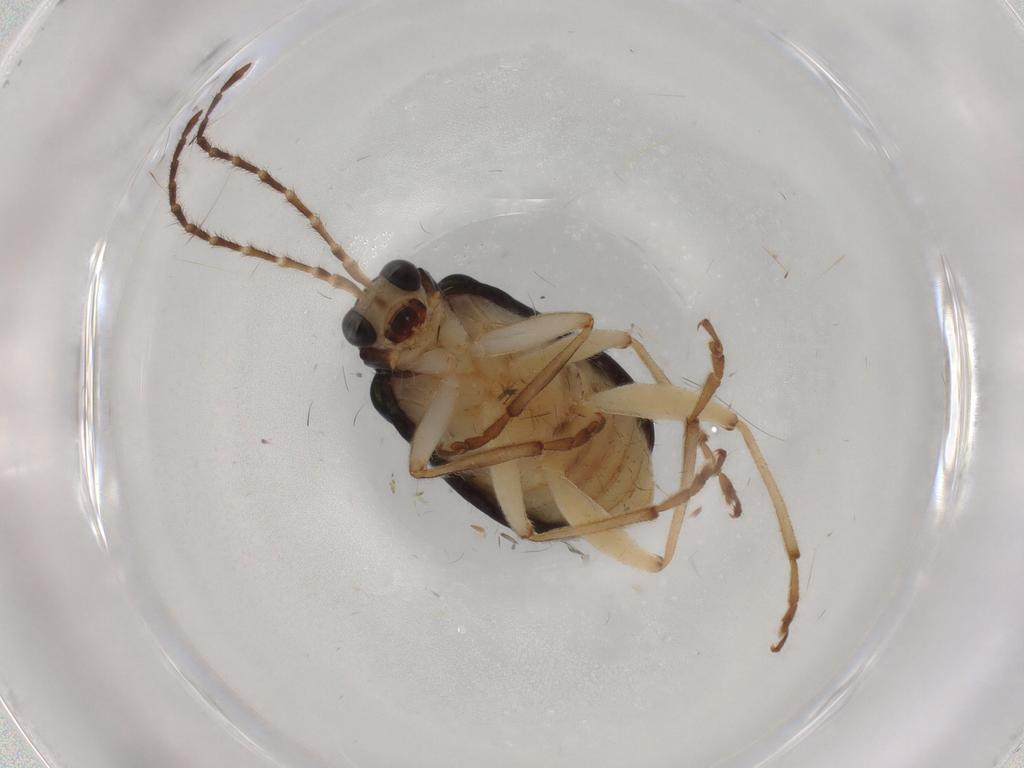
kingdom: Animalia
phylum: Arthropoda
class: Insecta
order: Coleoptera
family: Chrysomelidae
